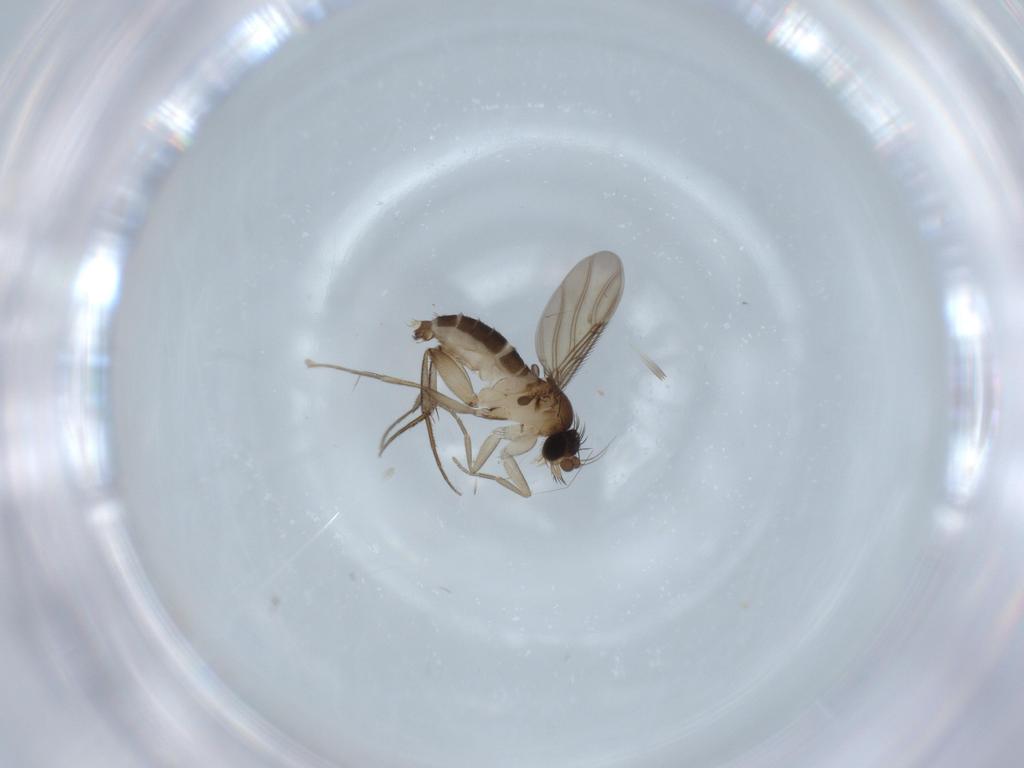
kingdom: Animalia
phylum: Arthropoda
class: Insecta
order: Diptera
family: Phoridae
